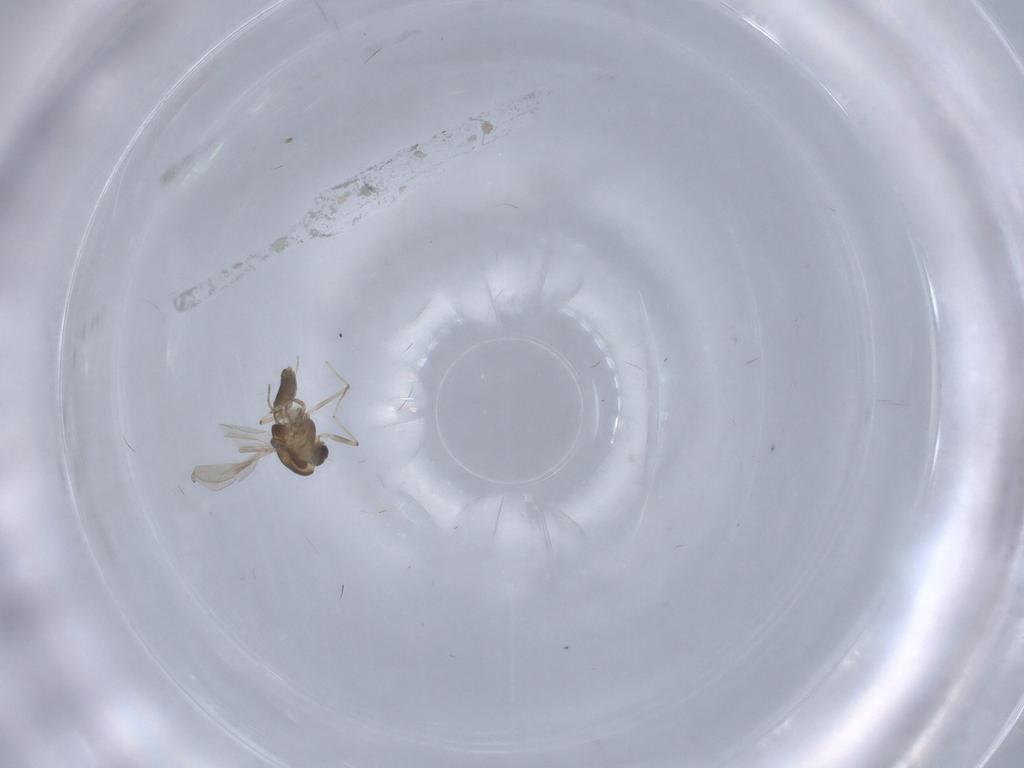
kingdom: Animalia
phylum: Arthropoda
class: Insecta
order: Diptera
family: Chironomidae
